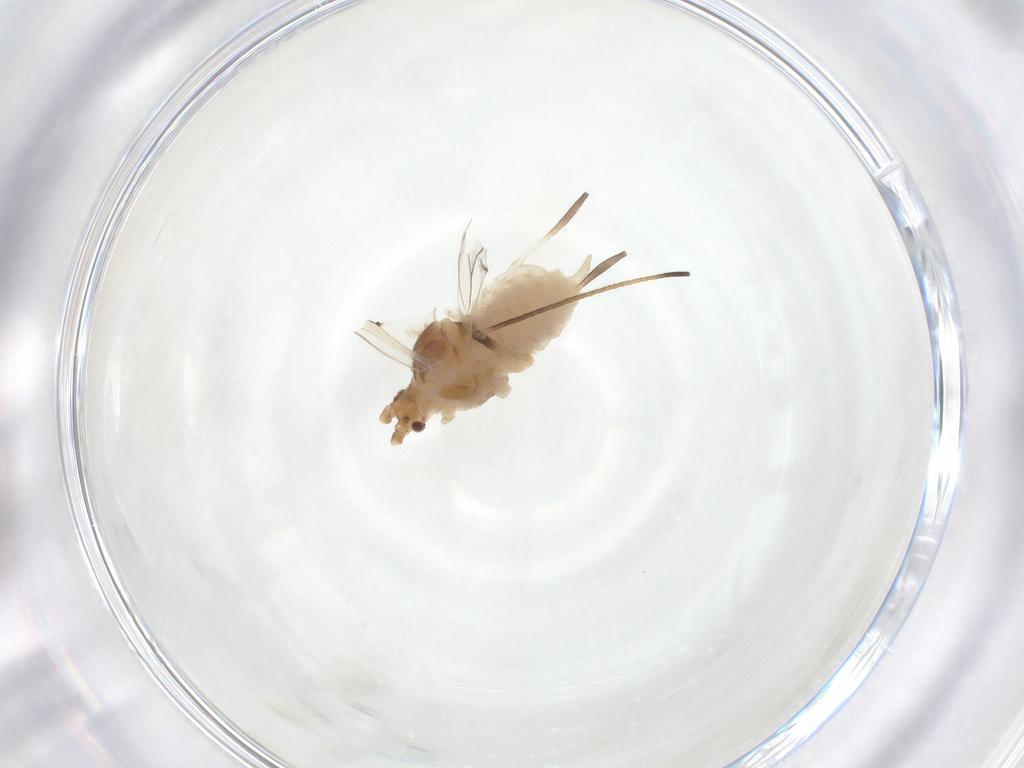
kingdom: Animalia
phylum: Arthropoda
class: Insecta
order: Hemiptera
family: Aphididae
